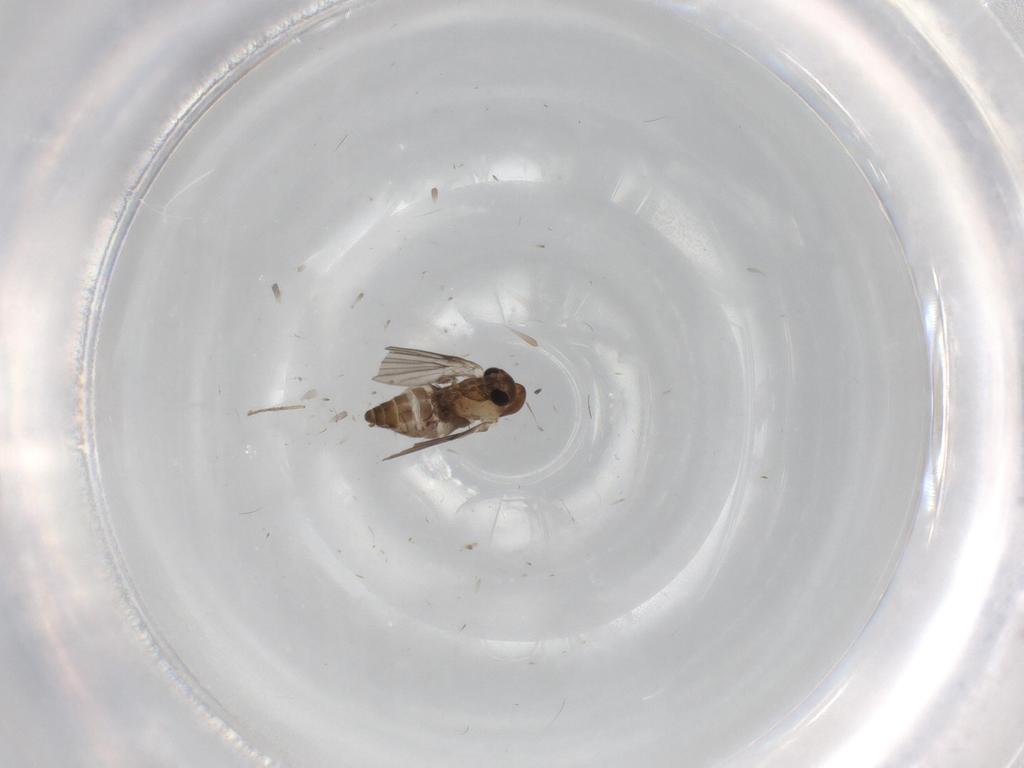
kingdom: Animalia
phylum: Arthropoda
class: Insecta
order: Diptera
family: Psychodidae
